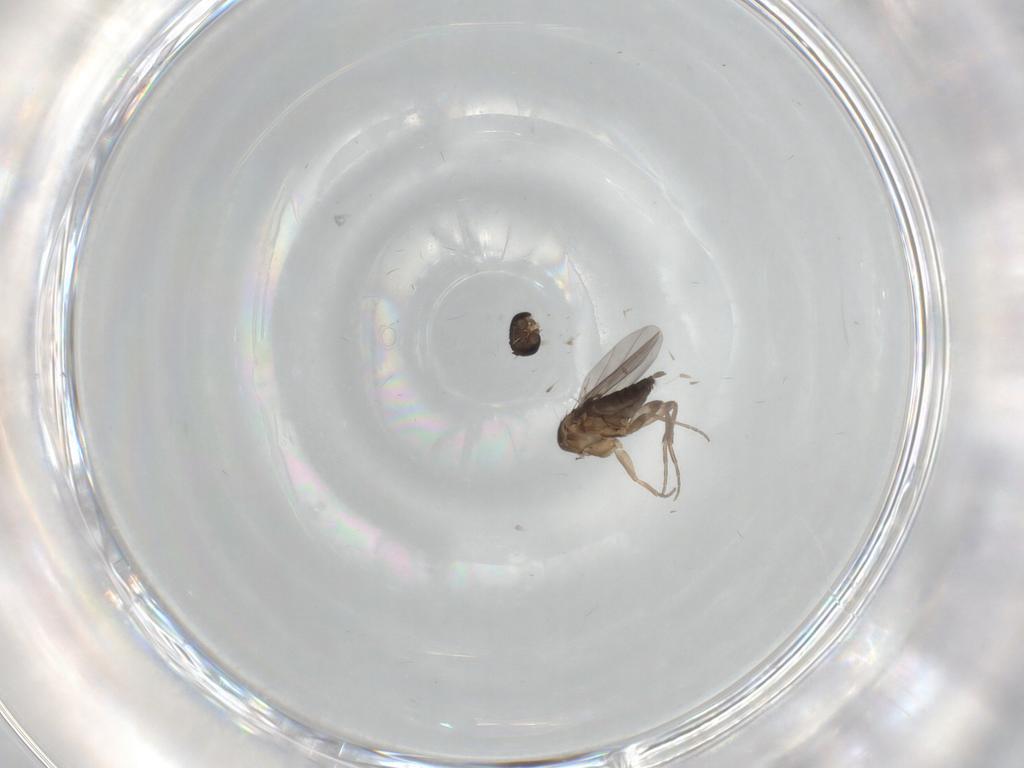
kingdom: Animalia
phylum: Arthropoda
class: Insecta
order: Diptera
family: Phoridae
